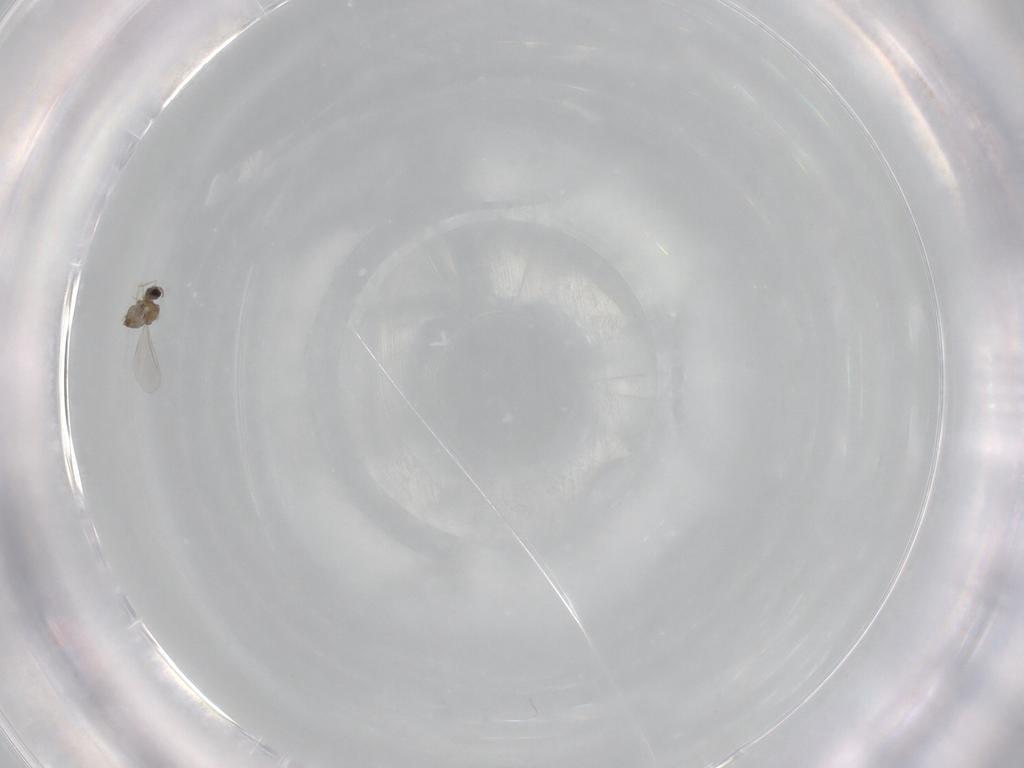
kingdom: Animalia
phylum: Arthropoda
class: Insecta
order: Diptera
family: Cecidomyiidae
